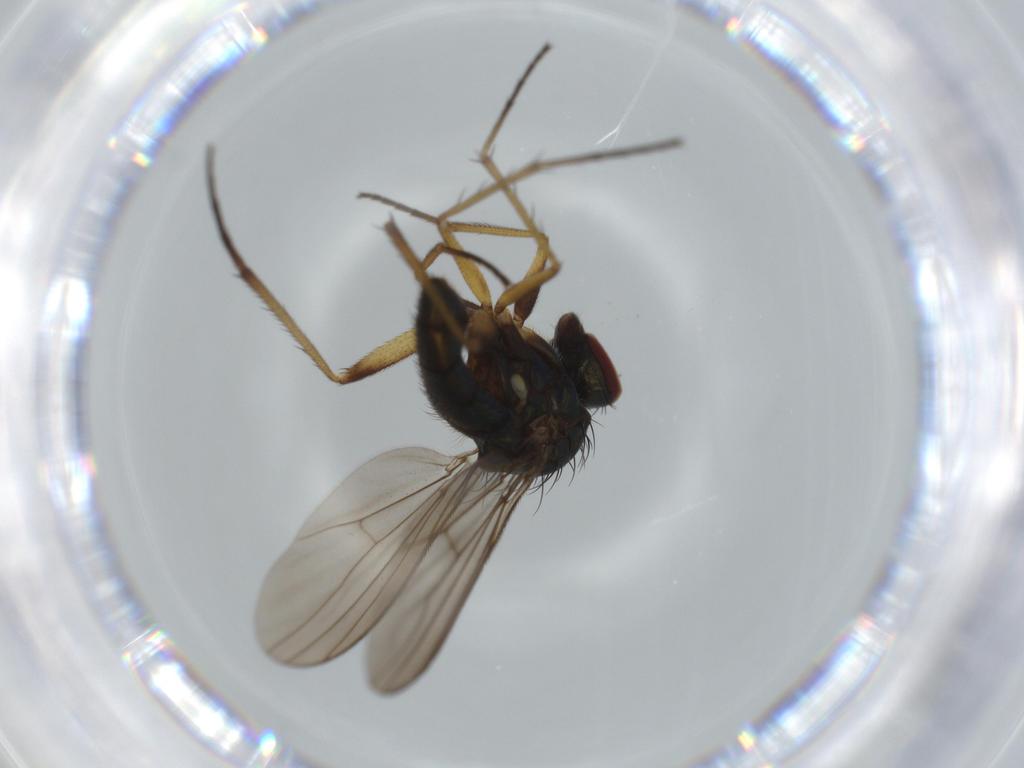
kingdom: Animalia
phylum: Arthropoda
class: Insecta
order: Diptera
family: Dolichopodidae
